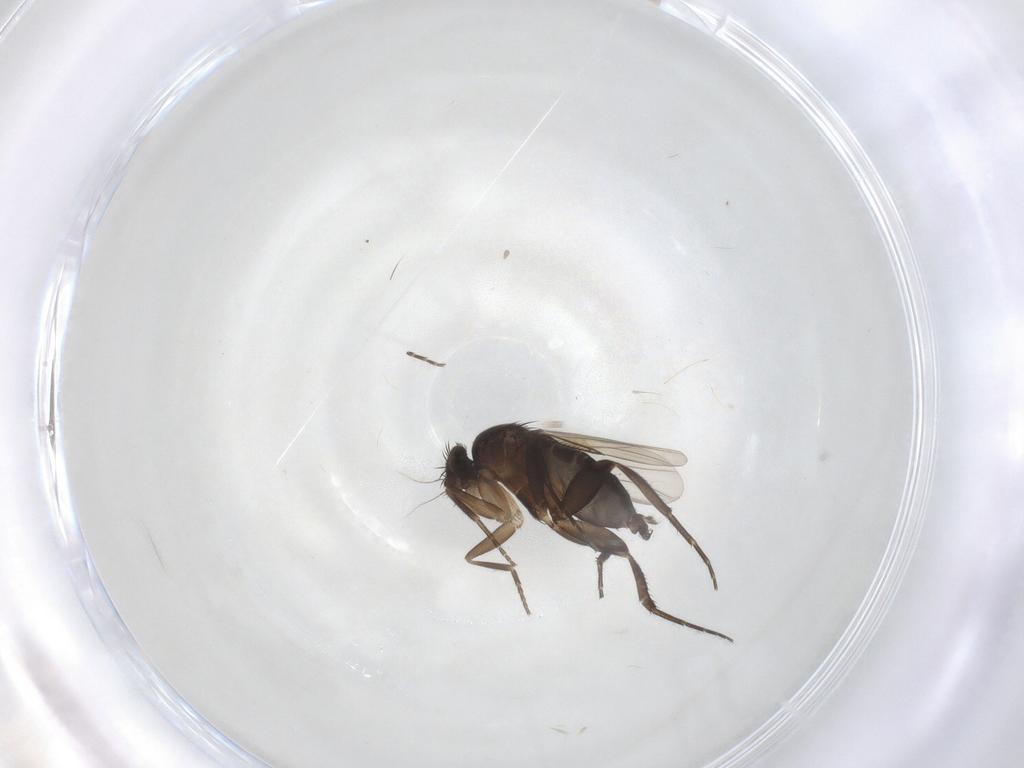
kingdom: Animalia
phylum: Arthropoda
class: Insecta
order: Diptera
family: Phoridae
